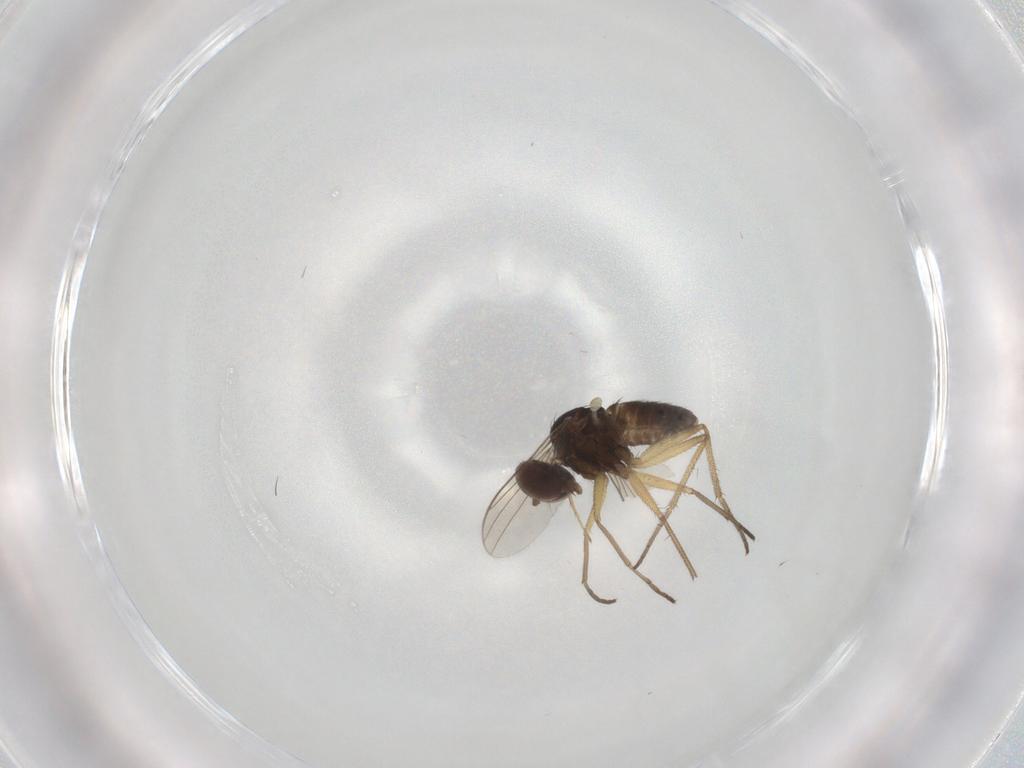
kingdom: Animalia
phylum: Arthropoda
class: Insecta
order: Diptera
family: Dolichopodidae
